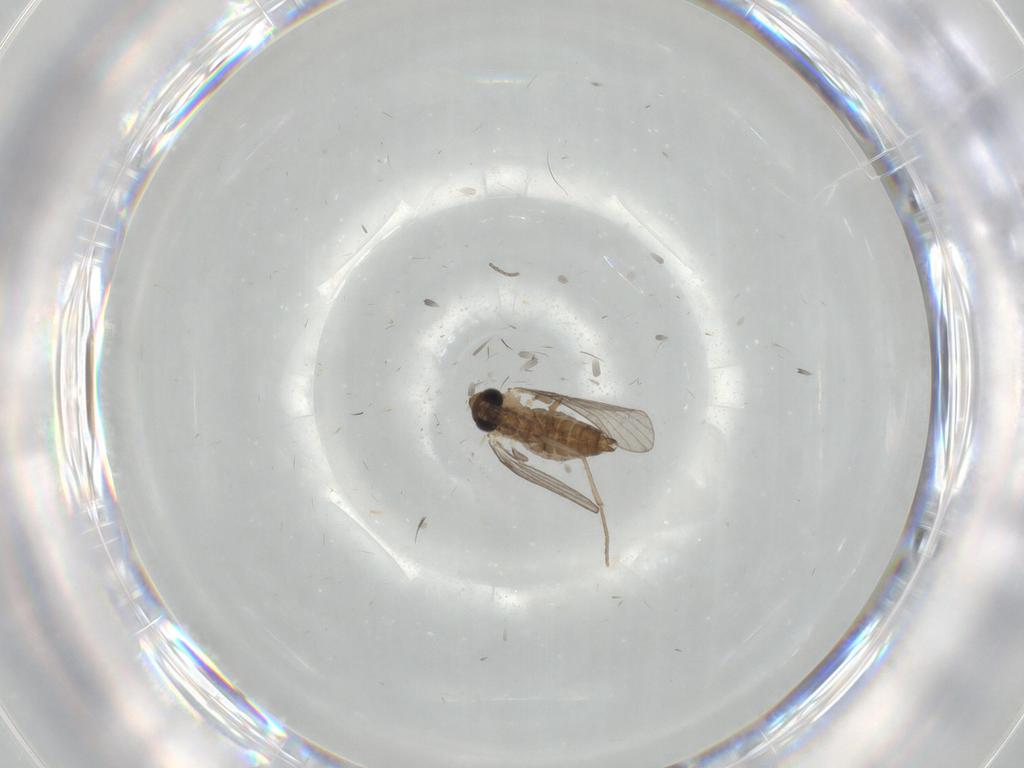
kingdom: Animalia
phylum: Arthropoda
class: Insecta
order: Diptera
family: Cecidomyiidae
